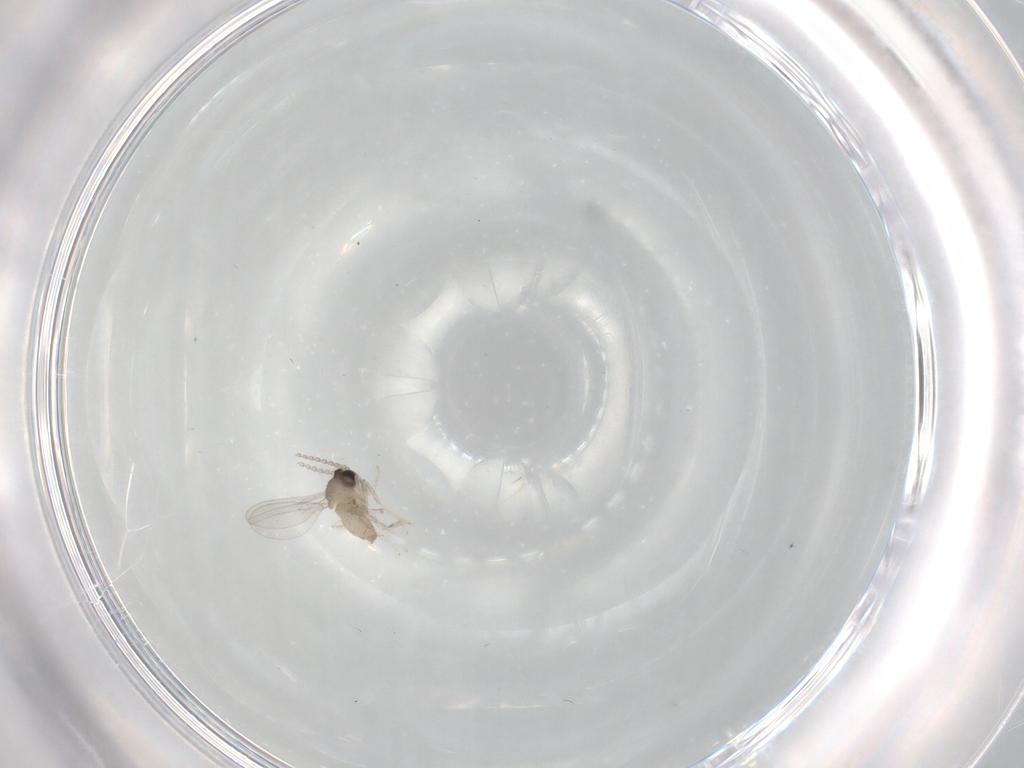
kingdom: Animalia
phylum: Arthropoda
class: Insecta
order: Diptera
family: Cecidomyiidae
